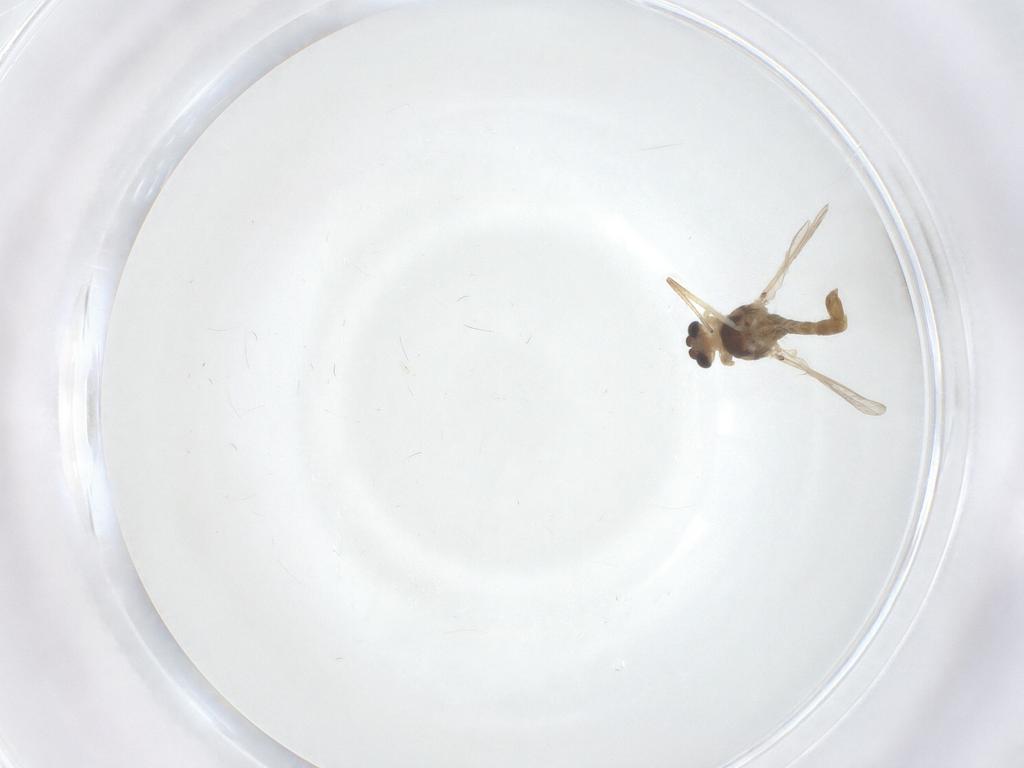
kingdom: Animalia
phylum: Arthropoda
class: Insecta
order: Diptera
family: Chironomidae
